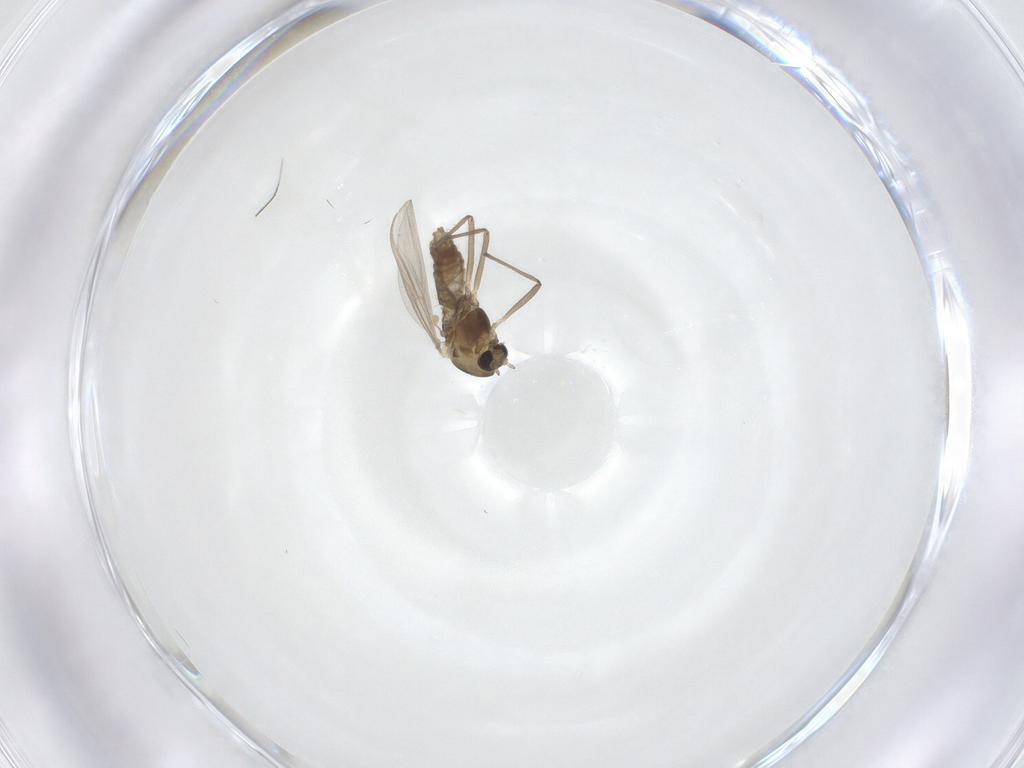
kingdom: Animalia
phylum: Arthropoda
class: Insecta
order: Diptera
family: Chironomidae
